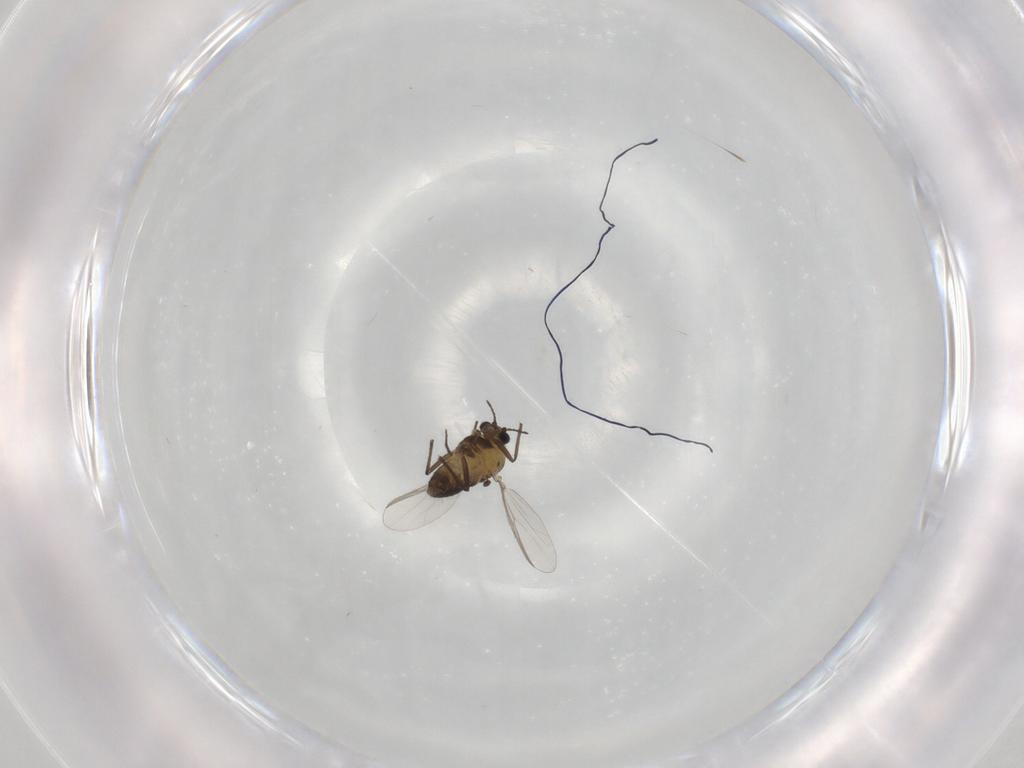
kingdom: Animalia
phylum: Arthropoda
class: Insecta
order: Diptera
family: Chironomidae
